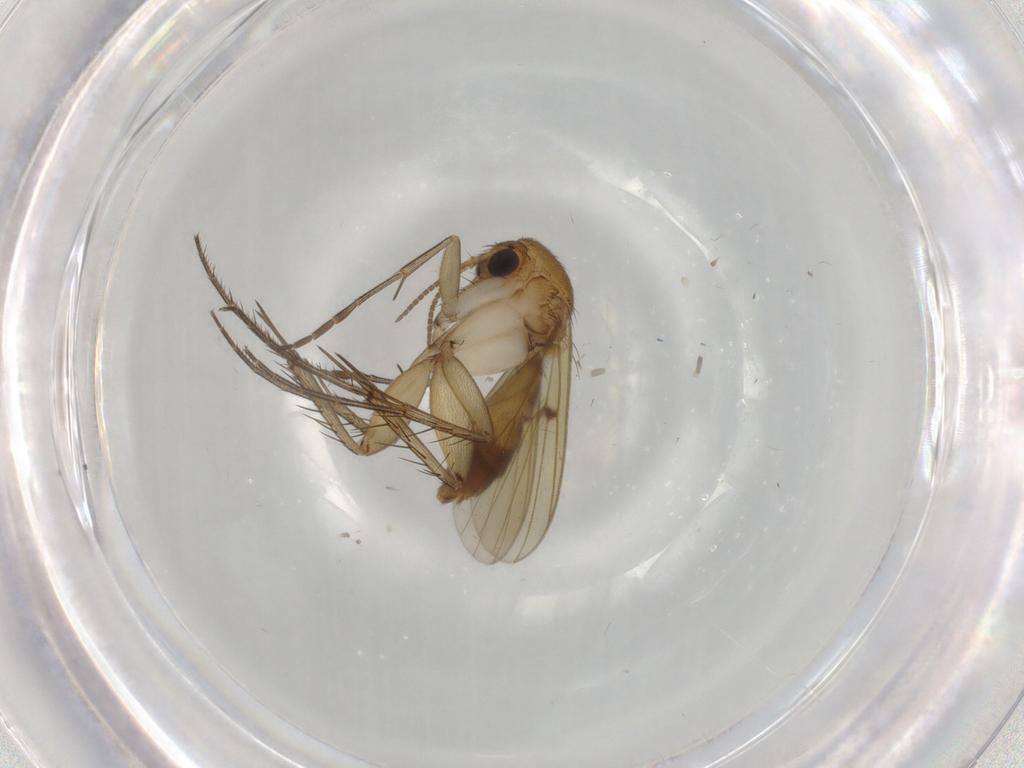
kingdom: Animalia
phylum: Arthropoda
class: Insecta
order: Diptera
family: Mycetophilidae
